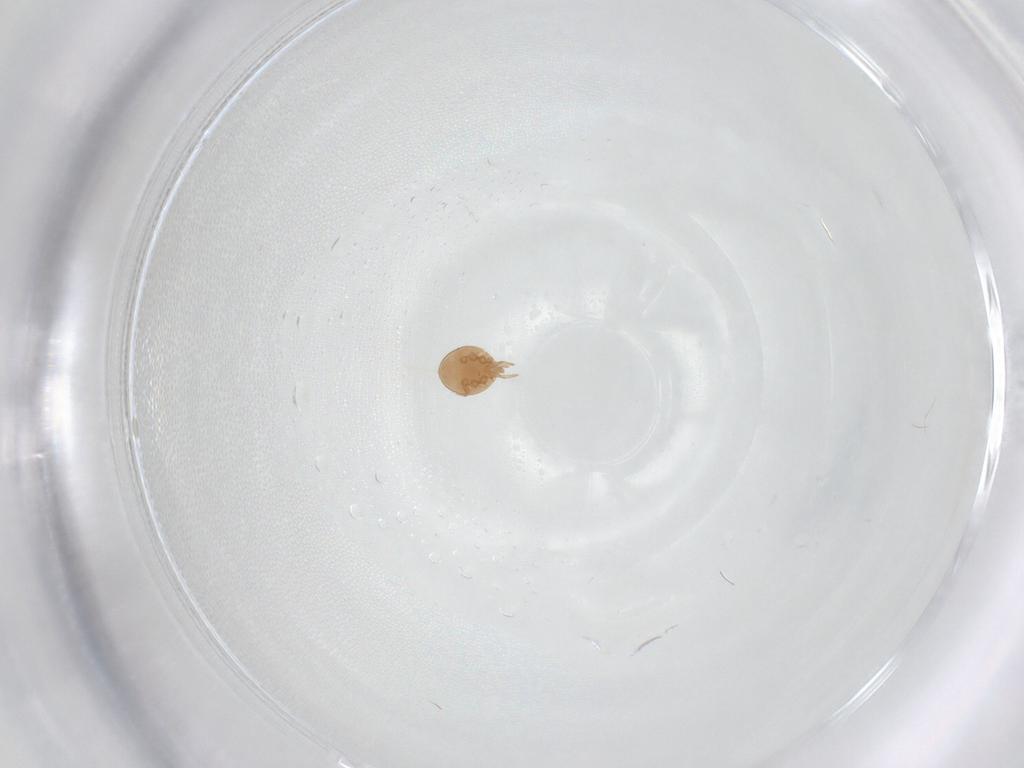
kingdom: Animalia
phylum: Arthropoda
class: Arachnida
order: Mesostigmata
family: Trematuridae
